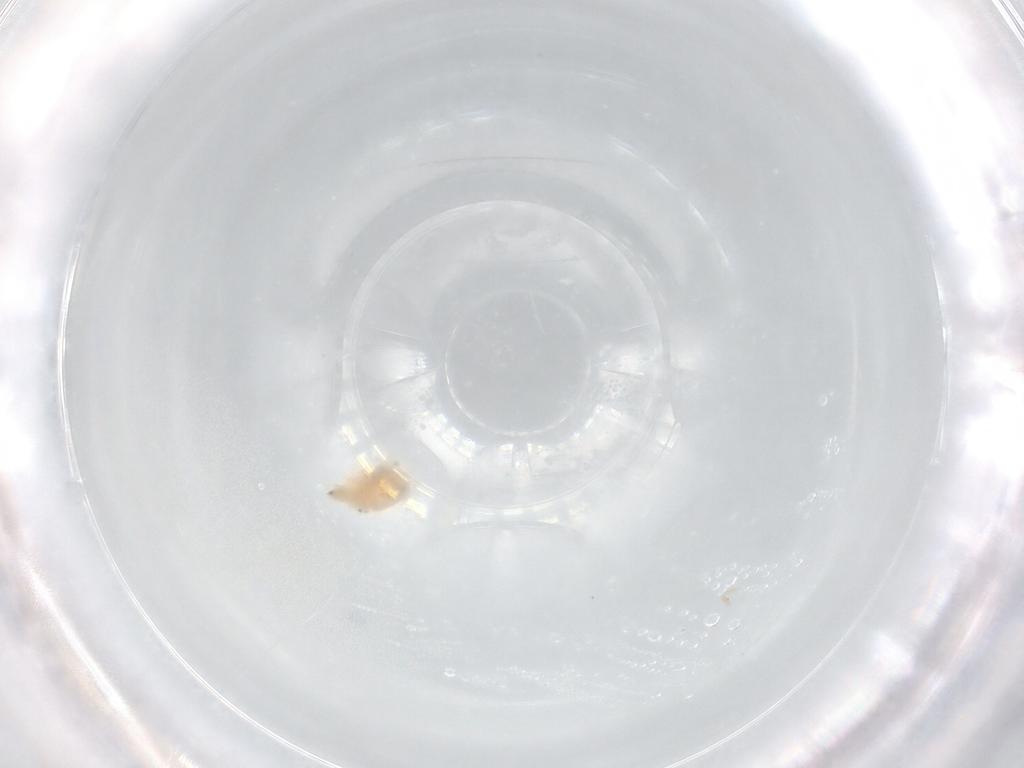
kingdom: Animalia
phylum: Arthropoda
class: Arachnida
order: Trombidiformes
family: Bdellidae
